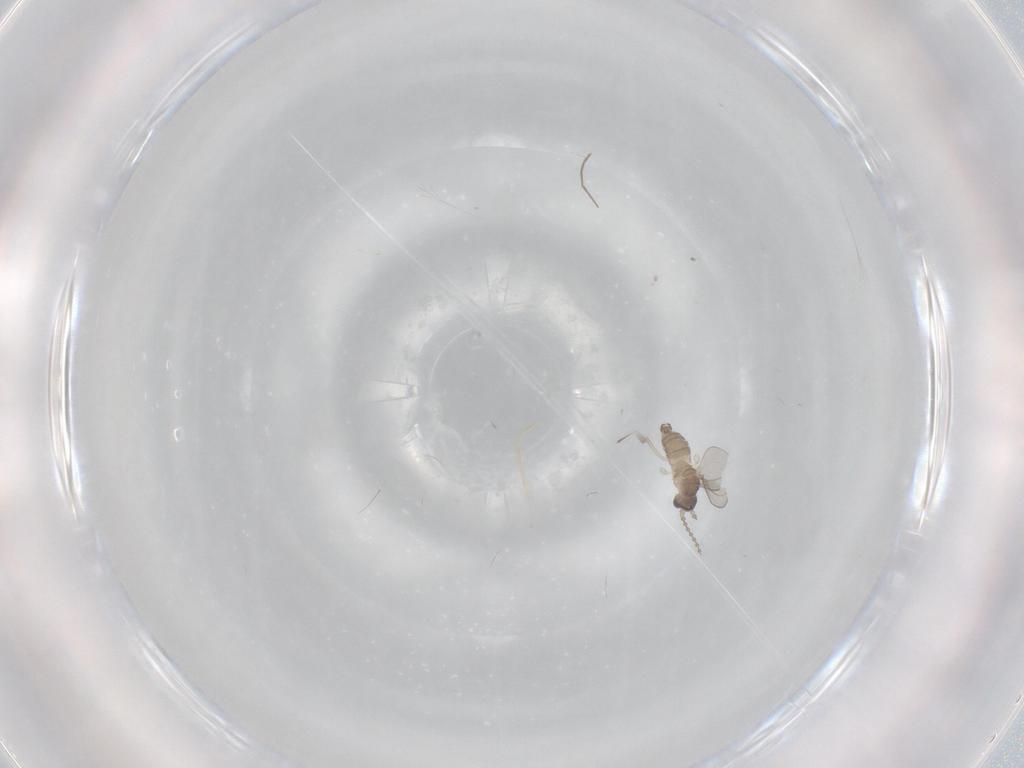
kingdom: Animalia
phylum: Arthropoda
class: Insecta
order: Diptera
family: Cecidomyiidae
